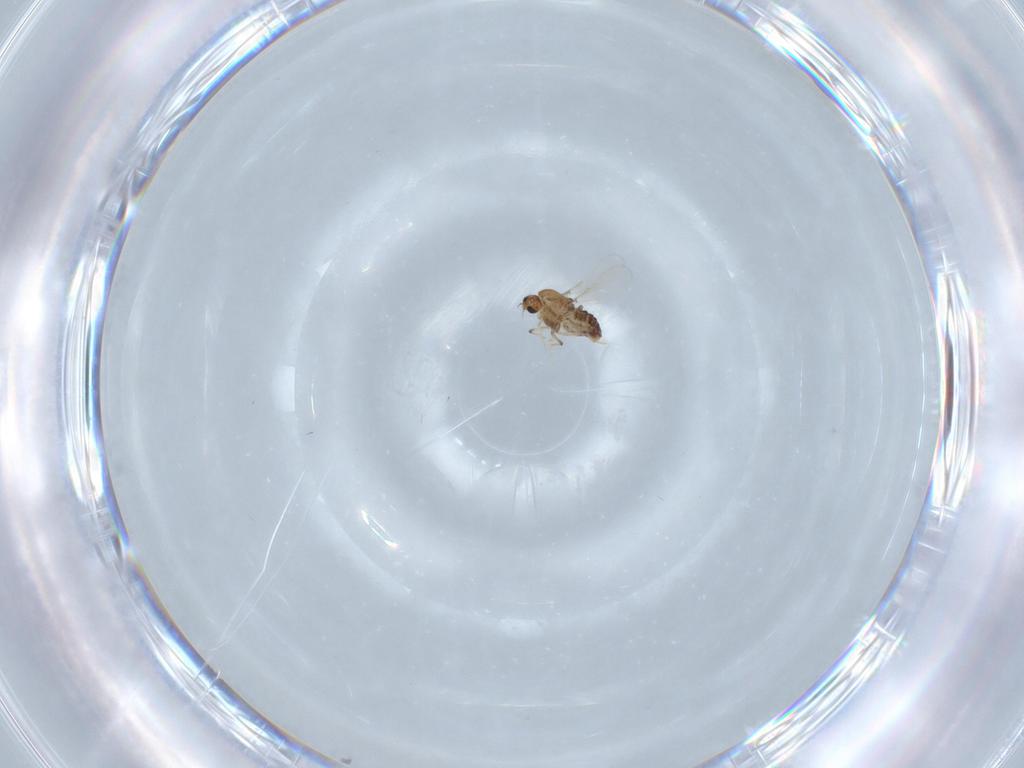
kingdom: Animalia
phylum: Arthropoda
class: Insecta
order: Diptera
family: Chironomidae
